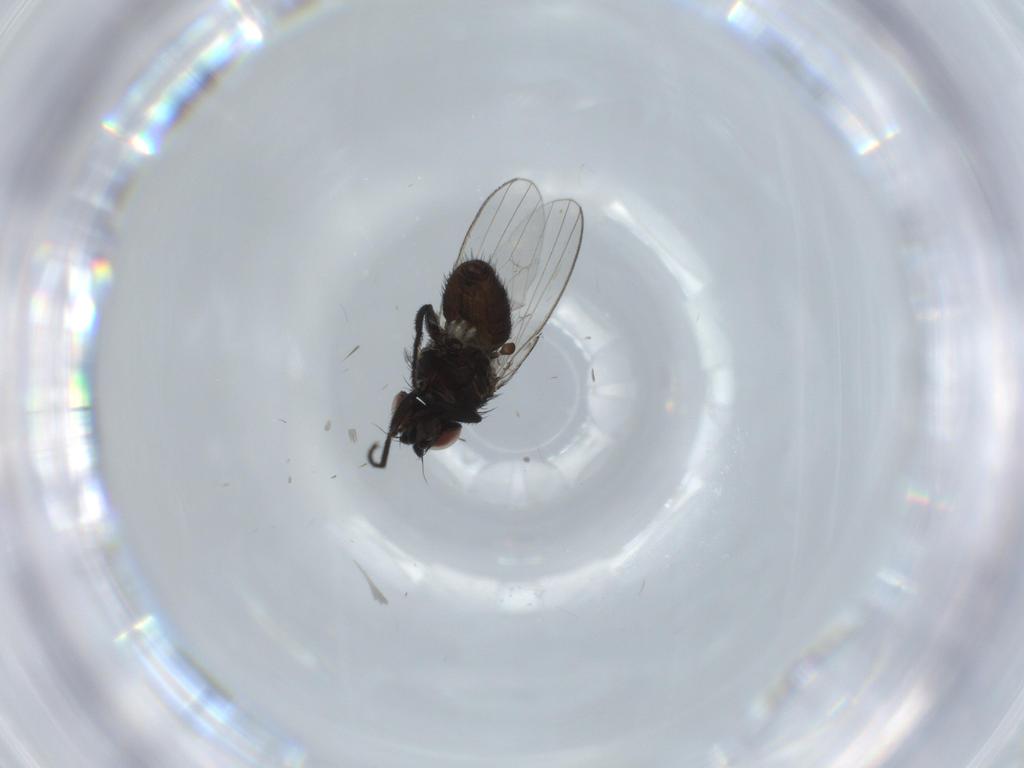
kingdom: Animalia
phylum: Arthropoda
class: Insecta
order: Diptera
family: Milichiidae
